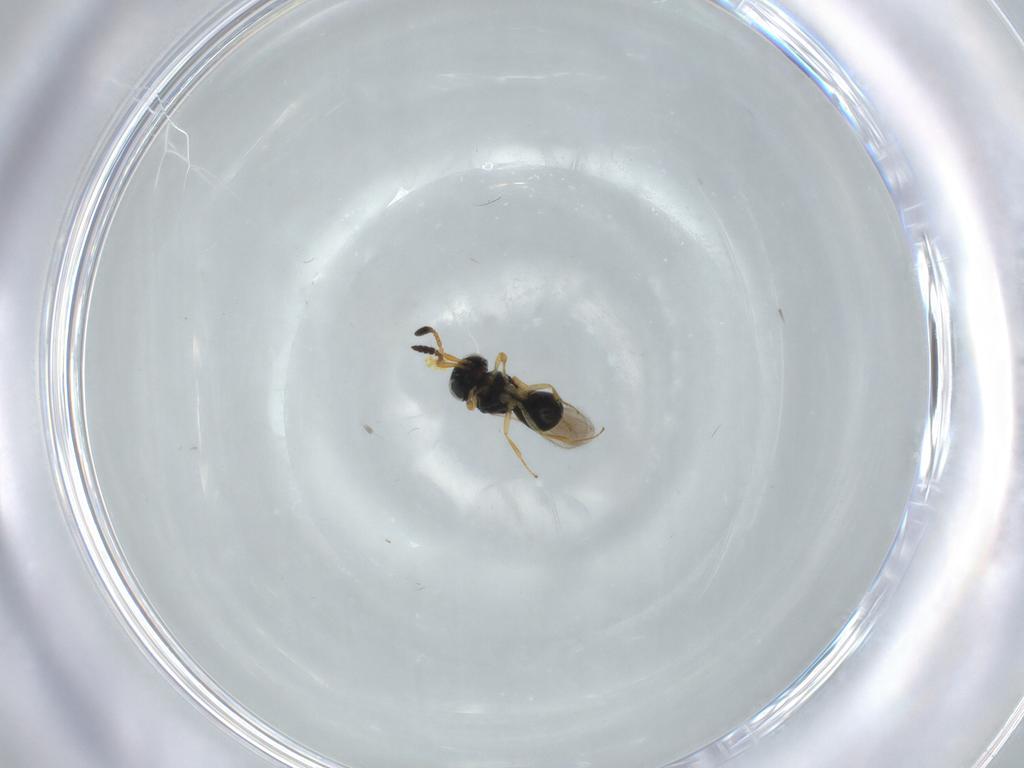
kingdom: Animalia
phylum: Arthropoda
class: Insecta
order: Hymenoptera
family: Scelionidae
